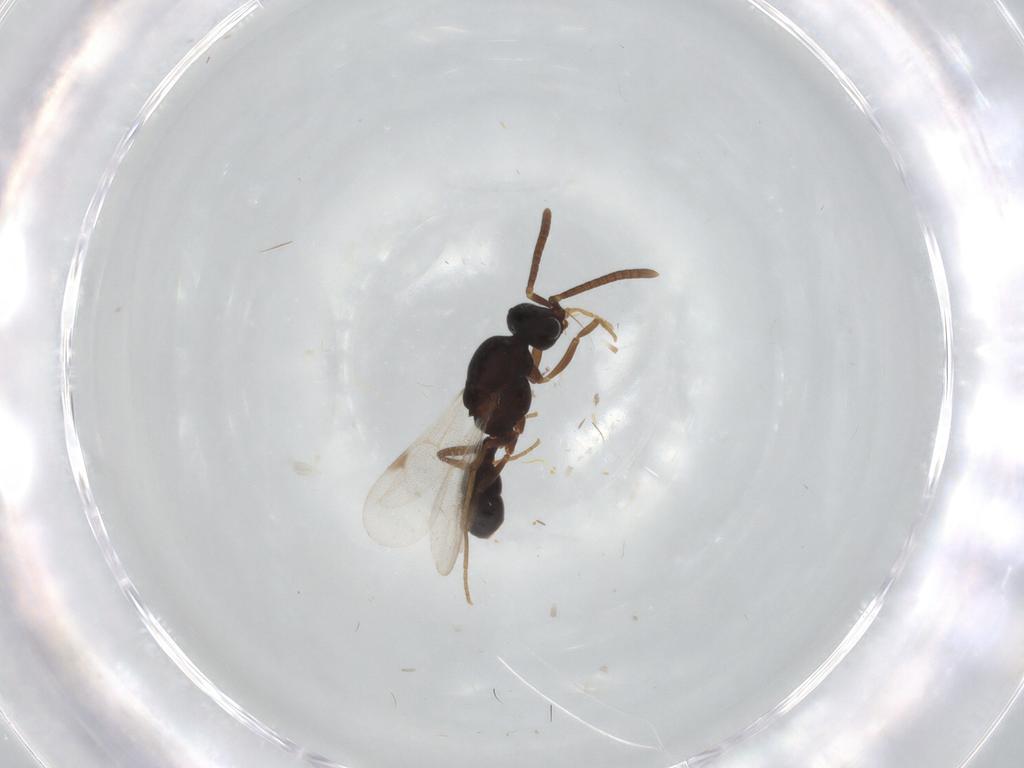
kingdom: Animalia
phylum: Arthropoda
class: Insecta
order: Hymenoptera
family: Formicidae
